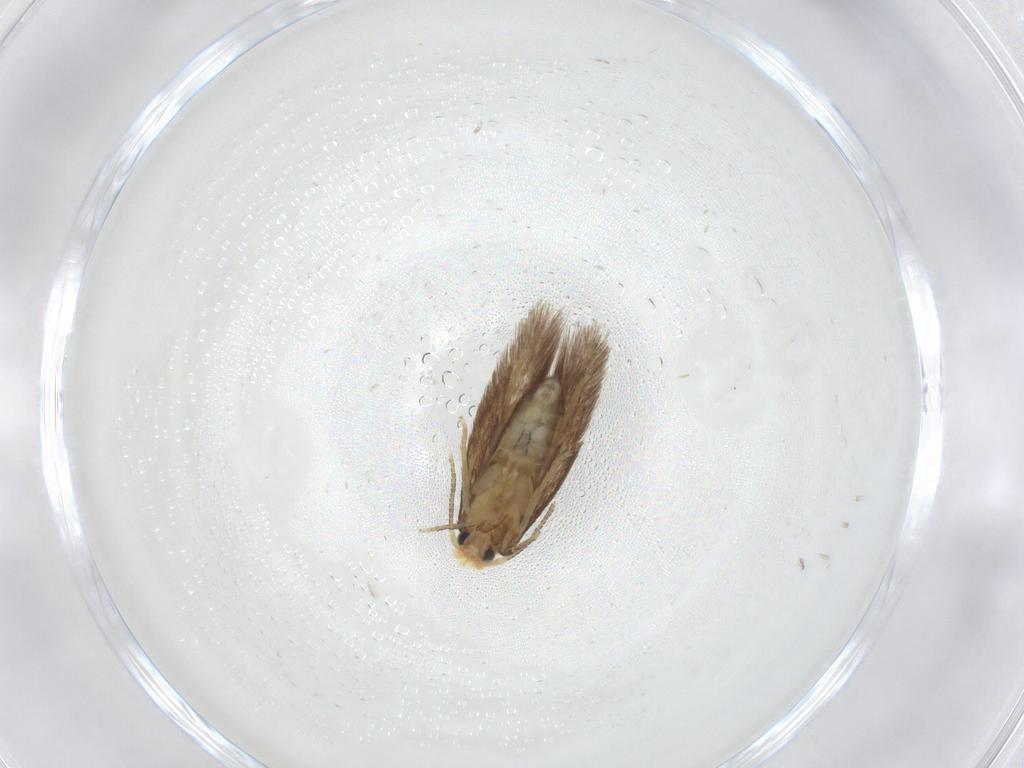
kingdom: Animalia
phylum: Arthropoda
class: Insecta
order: Lepidoptera
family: Nepticulidae
